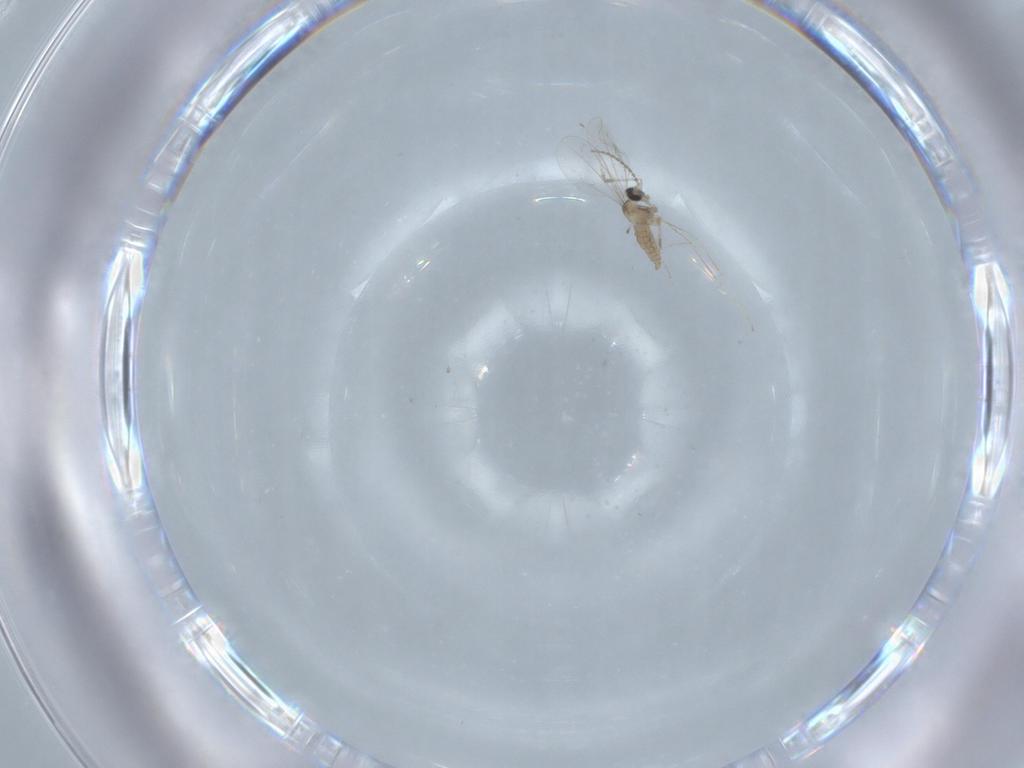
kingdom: Animalia
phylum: Arthropoda
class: Insecta
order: Diptera
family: Cecidomyiidae
